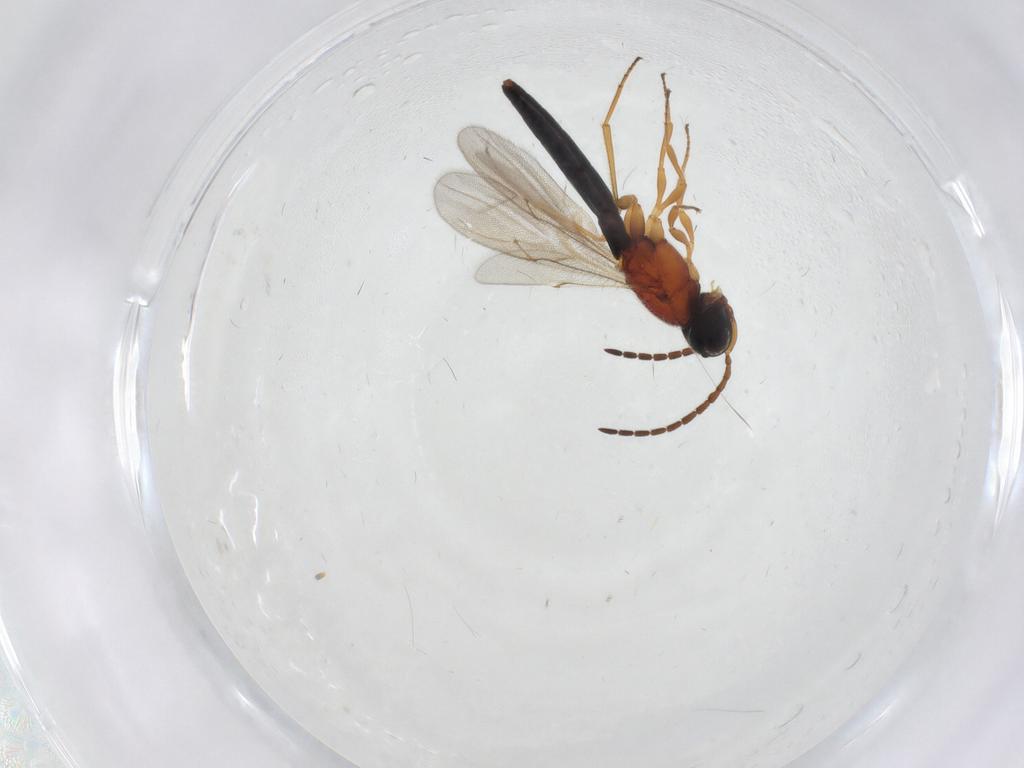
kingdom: Animalia
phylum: Arthropoda
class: Insecta
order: Hymenoptera
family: Scelionidae
